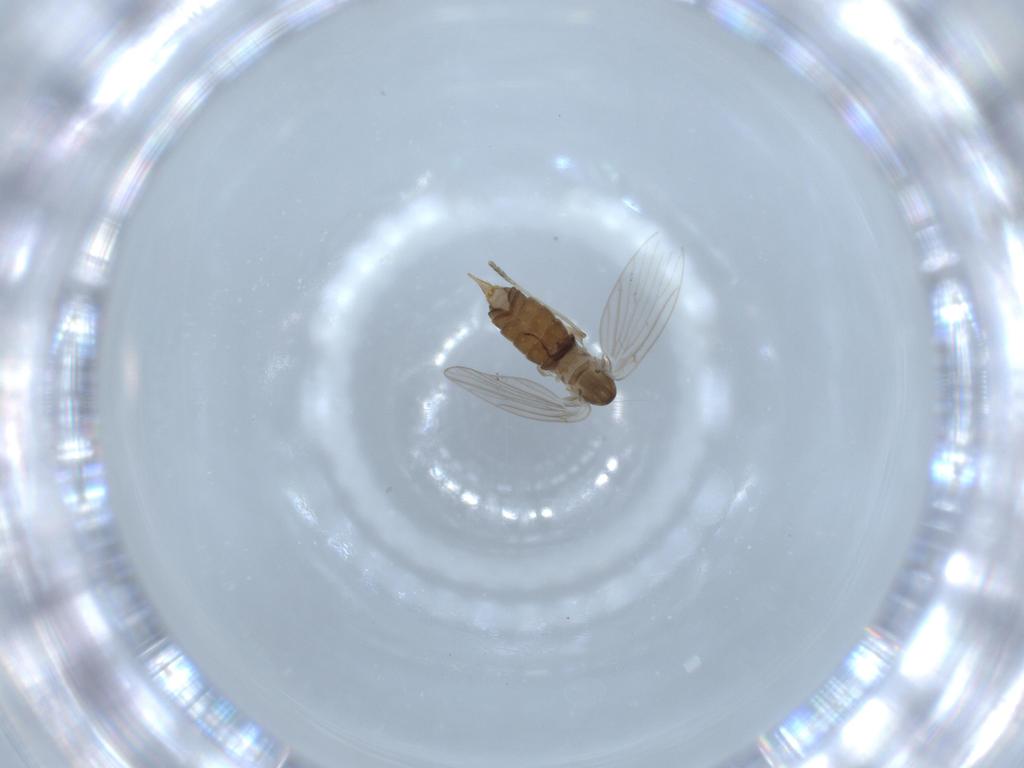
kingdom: Animalia
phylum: Arthropoda
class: Insecta
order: Diptera
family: Psychodidae
